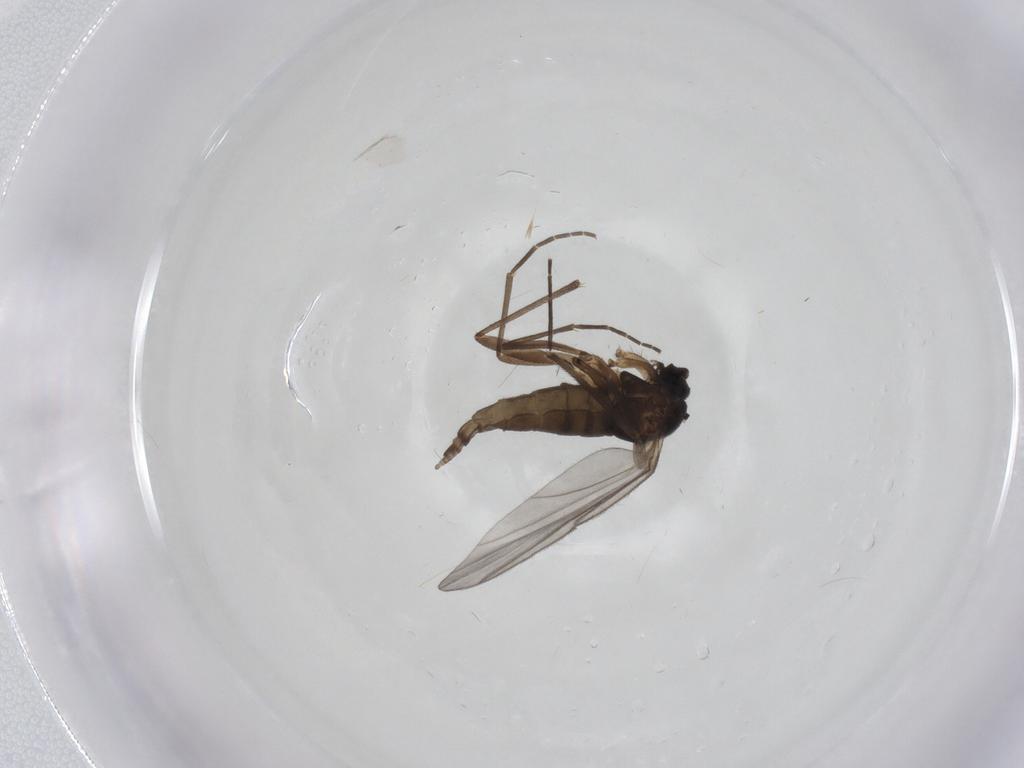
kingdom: Animalia
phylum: Arthropoda
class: Insecta
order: Diptera
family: Sciaridae
